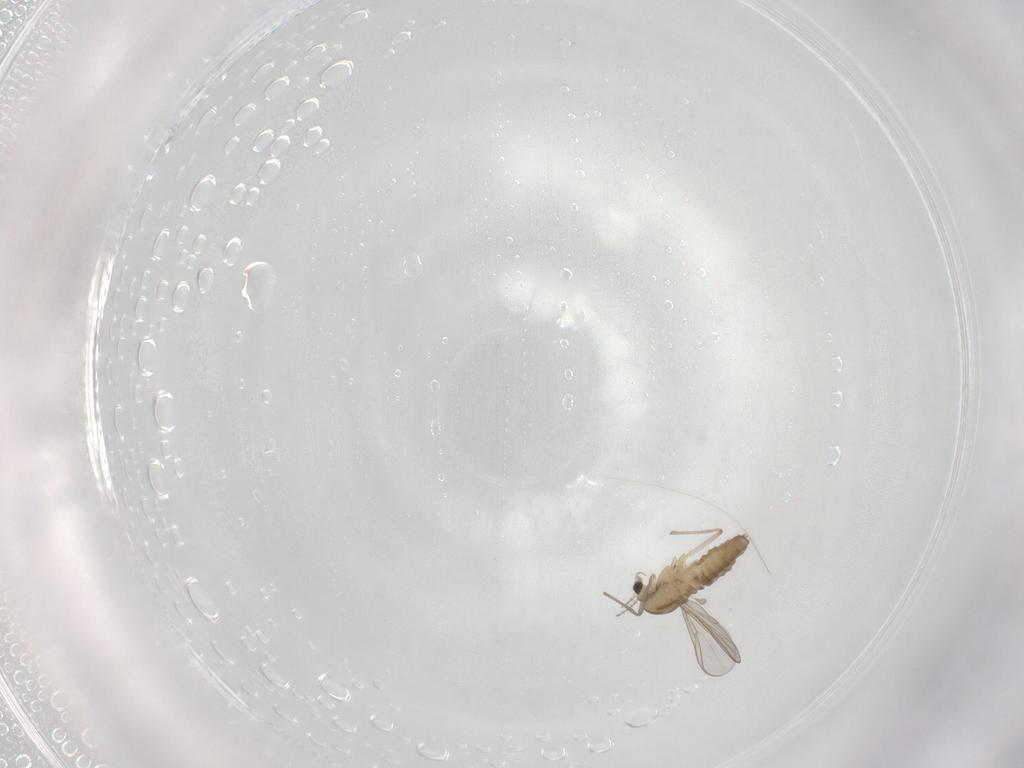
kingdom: Animalia
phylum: Arthropoda
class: Insecta
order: Diptera
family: Chironomidae
